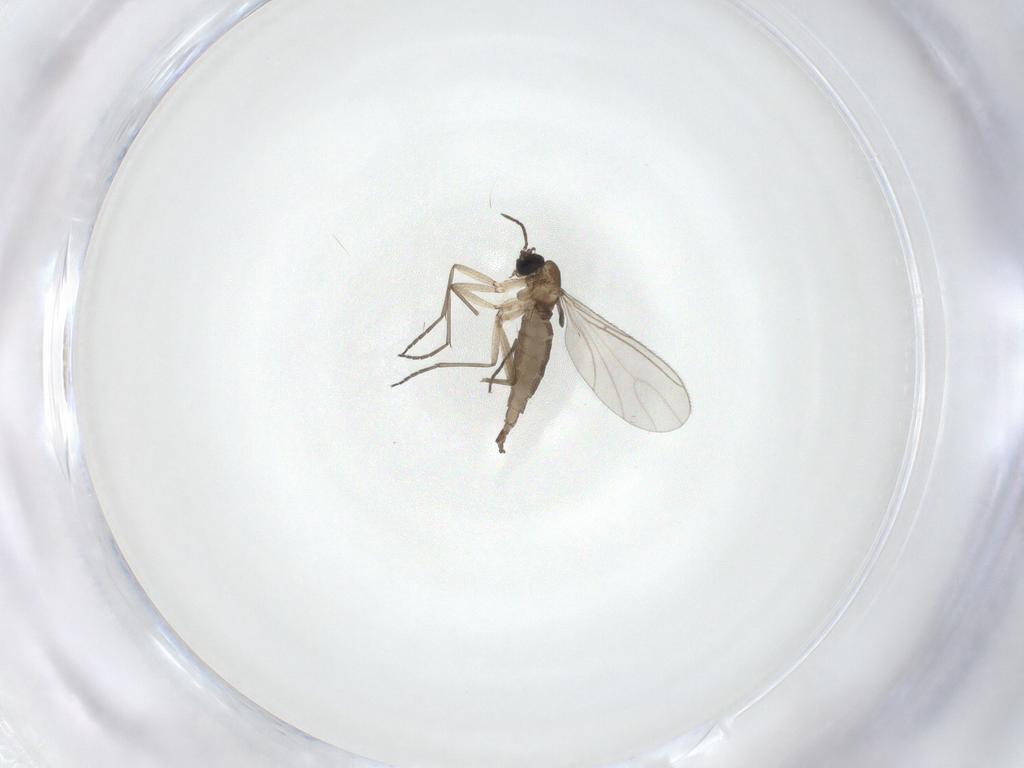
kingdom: Animalia
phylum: Arthropoda
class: Insecta
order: Diptera
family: Sciaridae
